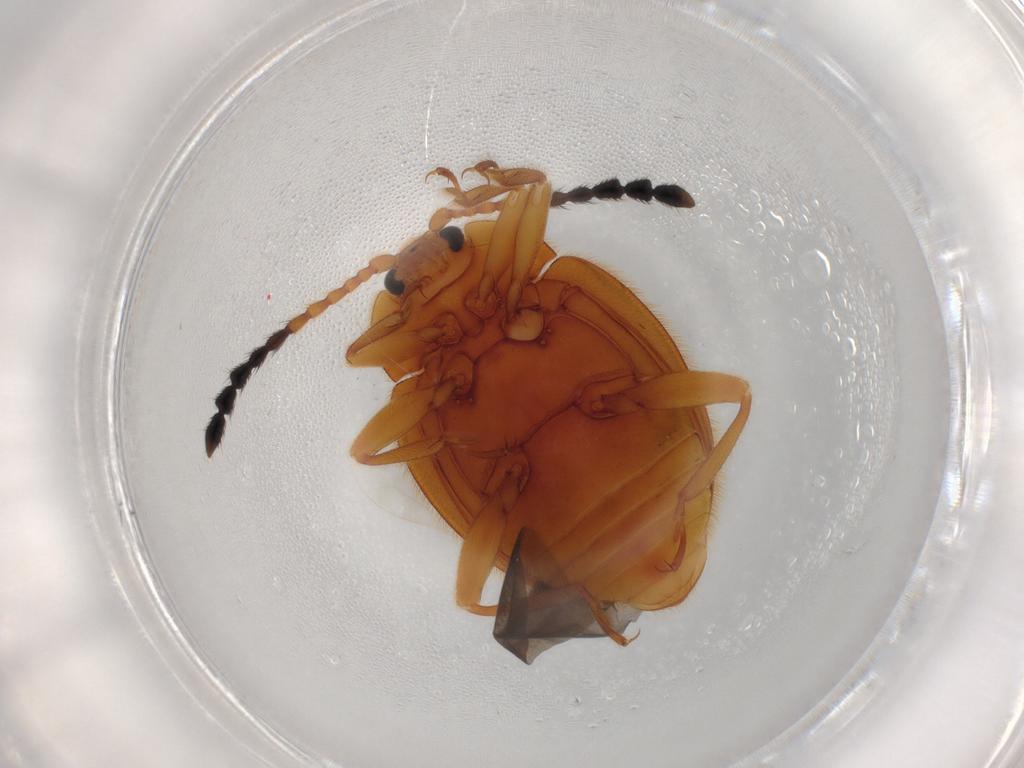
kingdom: Animalia
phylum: Arthropoda
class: Insecta
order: Coleoptera
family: Endomychidae
